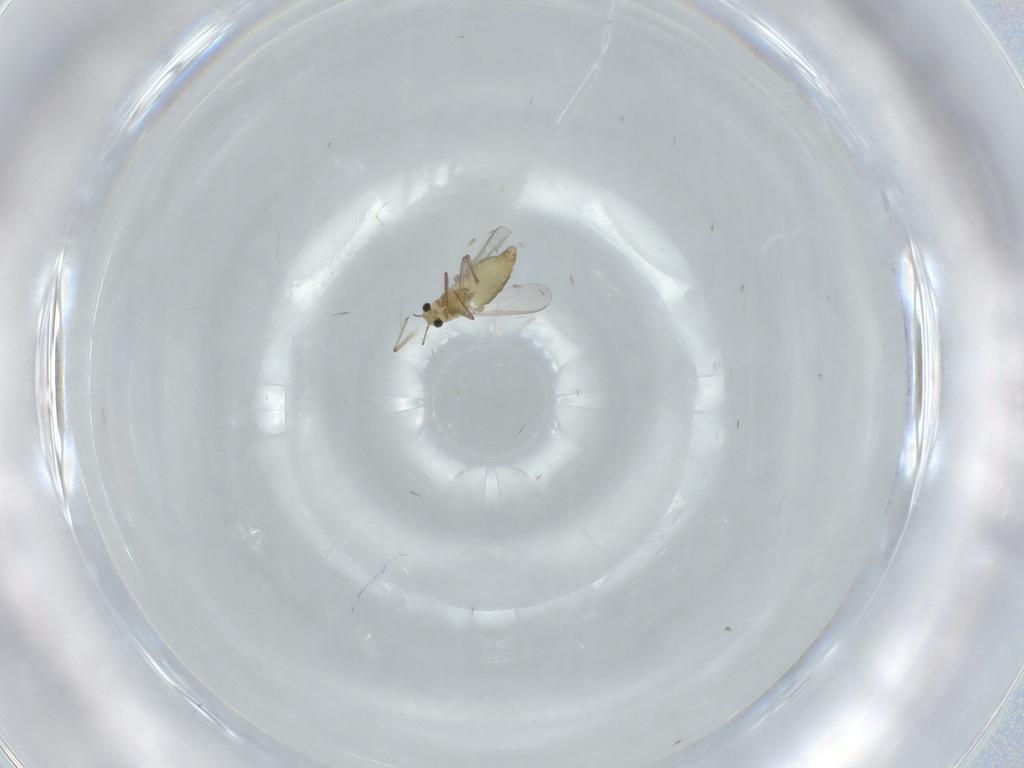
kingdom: Animalia
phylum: Arthropoda
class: Insecta
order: Diptera
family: Chironomidae
